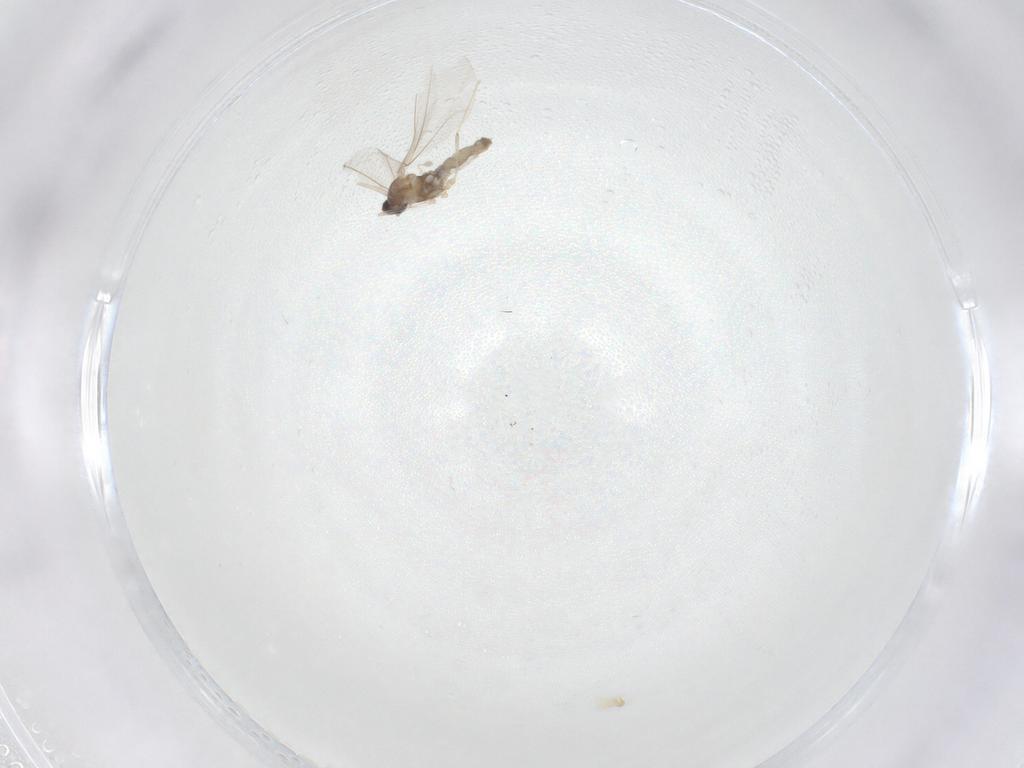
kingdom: Animalia
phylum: Arthropoda
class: Insecta
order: Diptera
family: Cecidomyiidae
